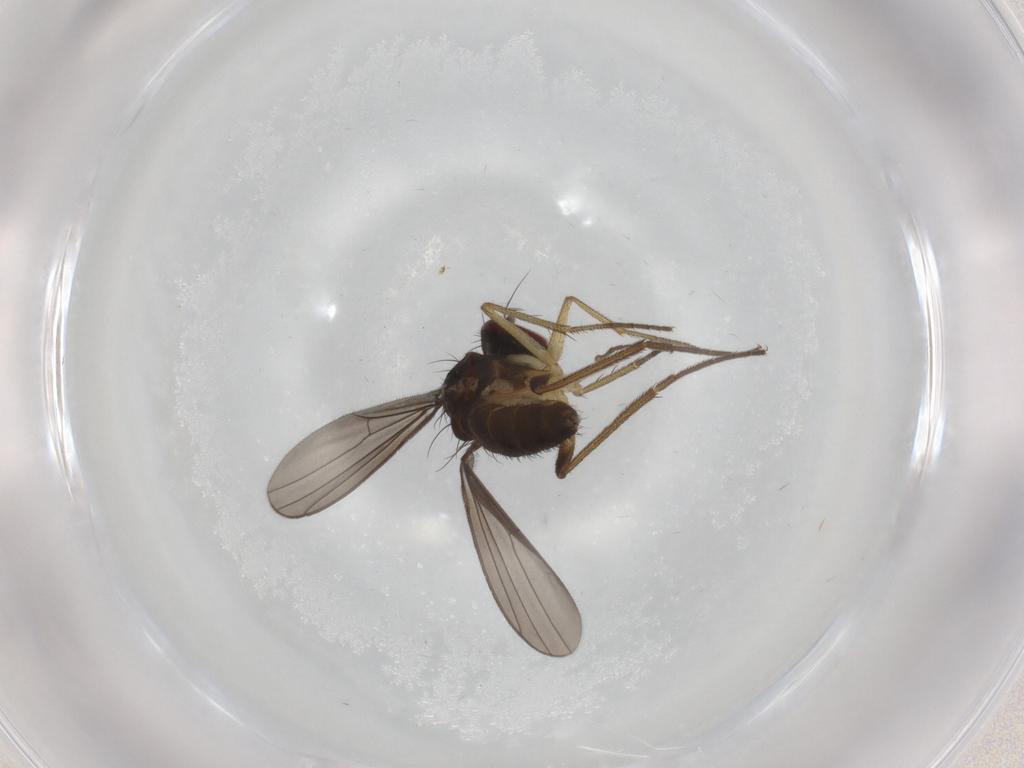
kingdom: Animalia
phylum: Arthropoda
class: Insecta
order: Diptera
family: Dolichopodidae
